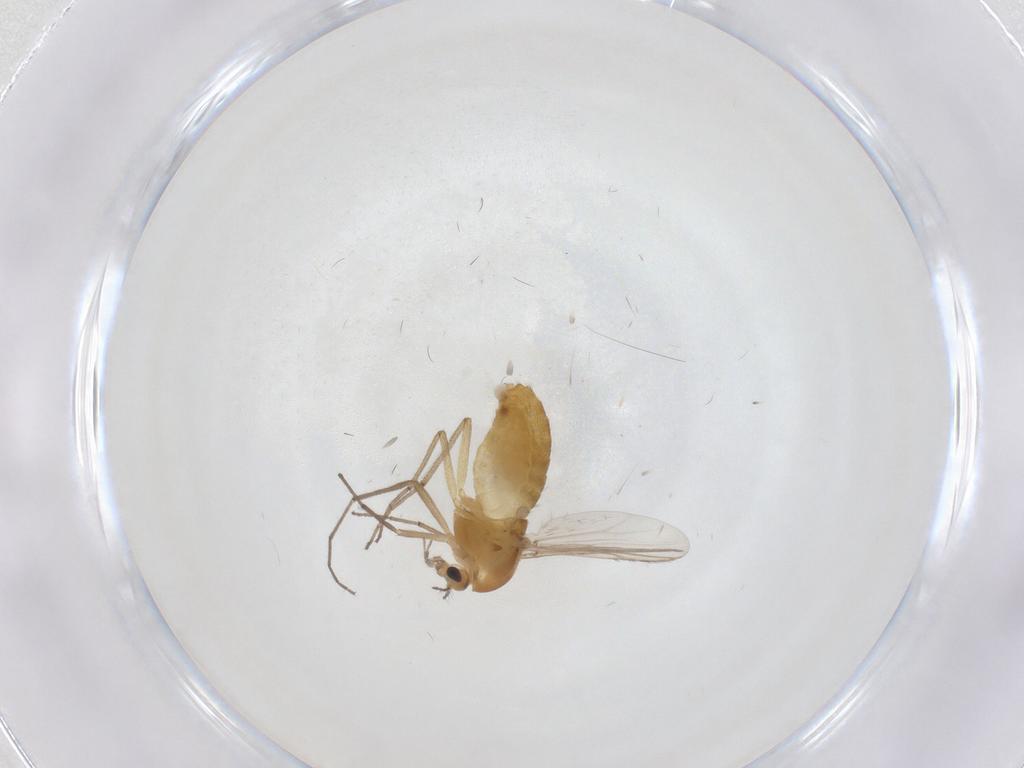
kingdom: Animalia
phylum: Arthropoda
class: Insecta
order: Diptera
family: Chironomidae
